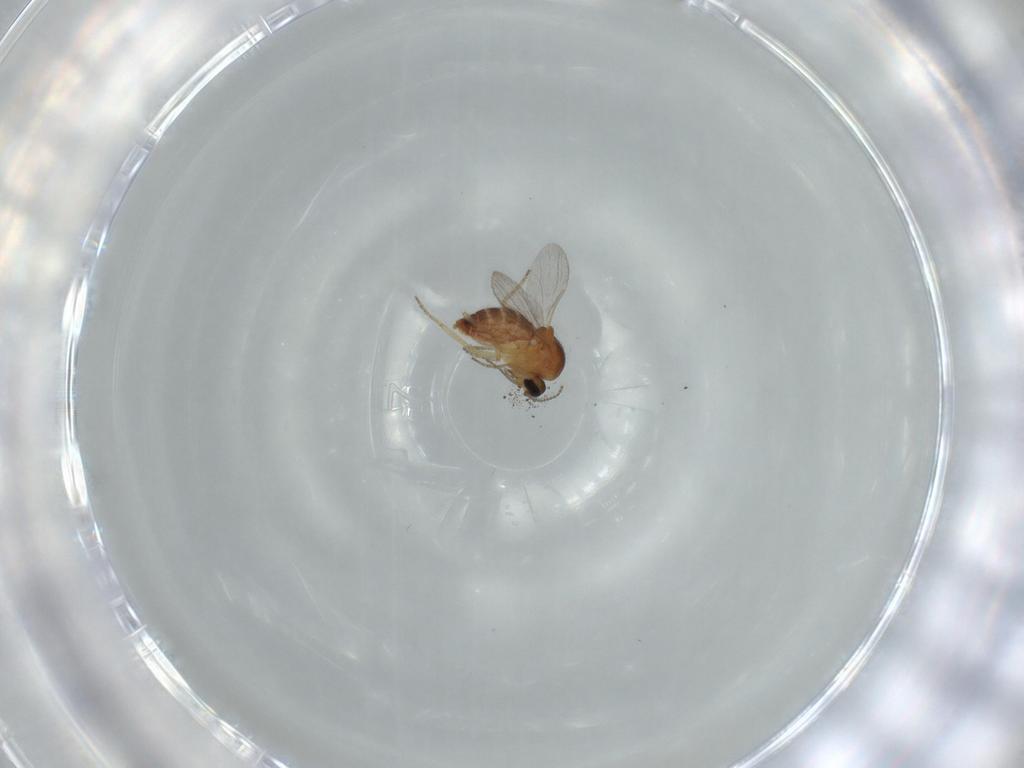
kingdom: Animalia
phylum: Arthropoda
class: Insecta
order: Diptera
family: Ceratopogonidae
